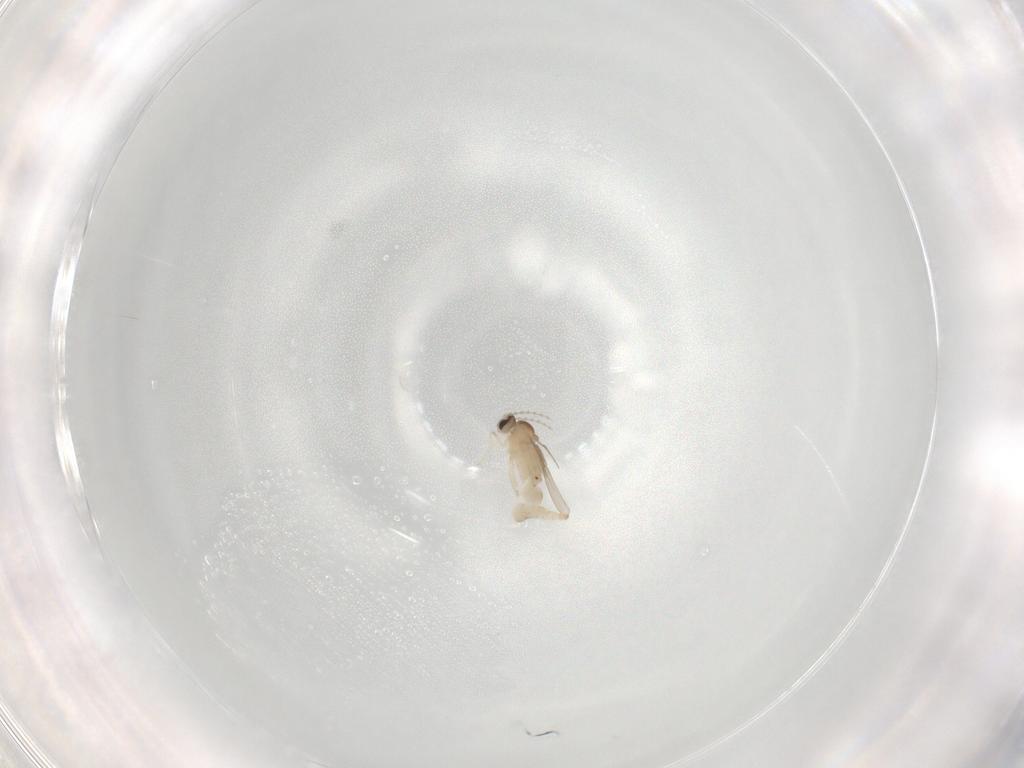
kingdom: Animalia
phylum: Arthropoda
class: Insecta
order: Diptera
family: Cecidomyiidae
